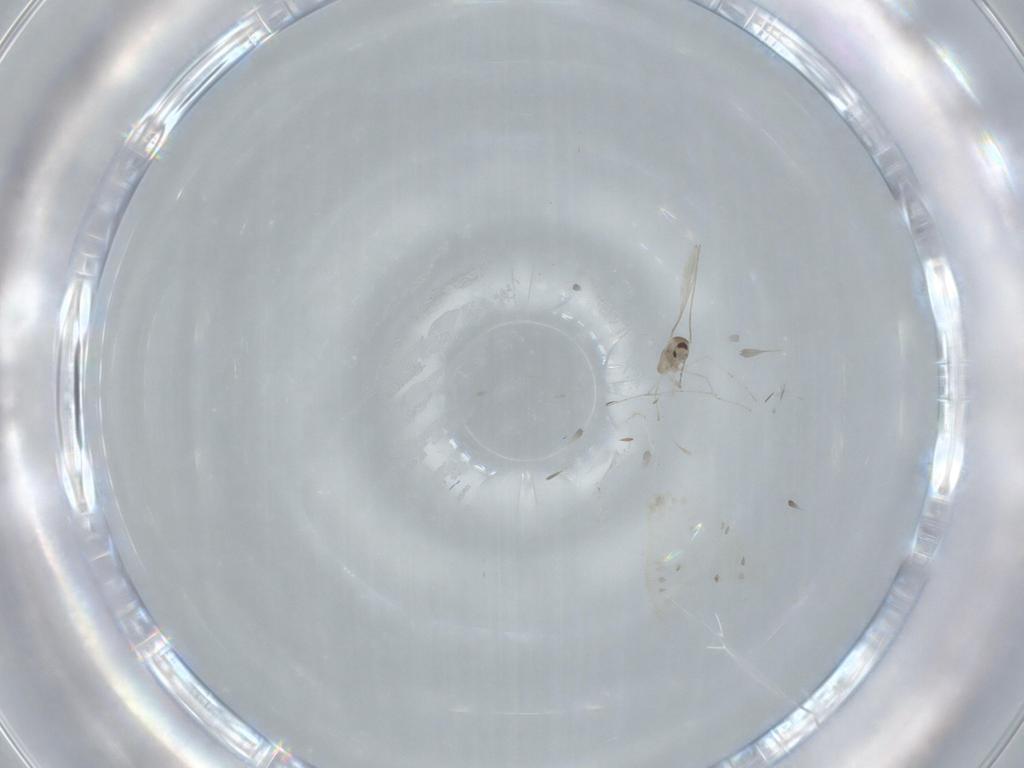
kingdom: Animalia
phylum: Arthropoda
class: Insecta
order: Diptera
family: Cecidomyiidae
